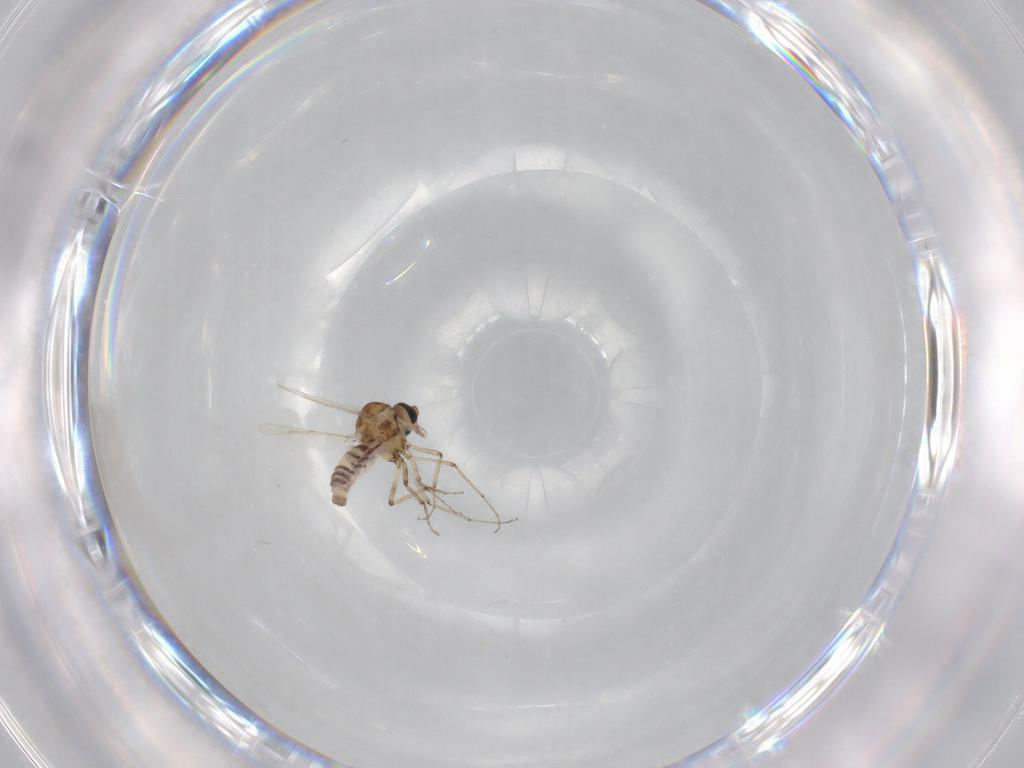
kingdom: Animalia
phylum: Arthropoda
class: Insecta
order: Diptera
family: Ceratopogonidae
